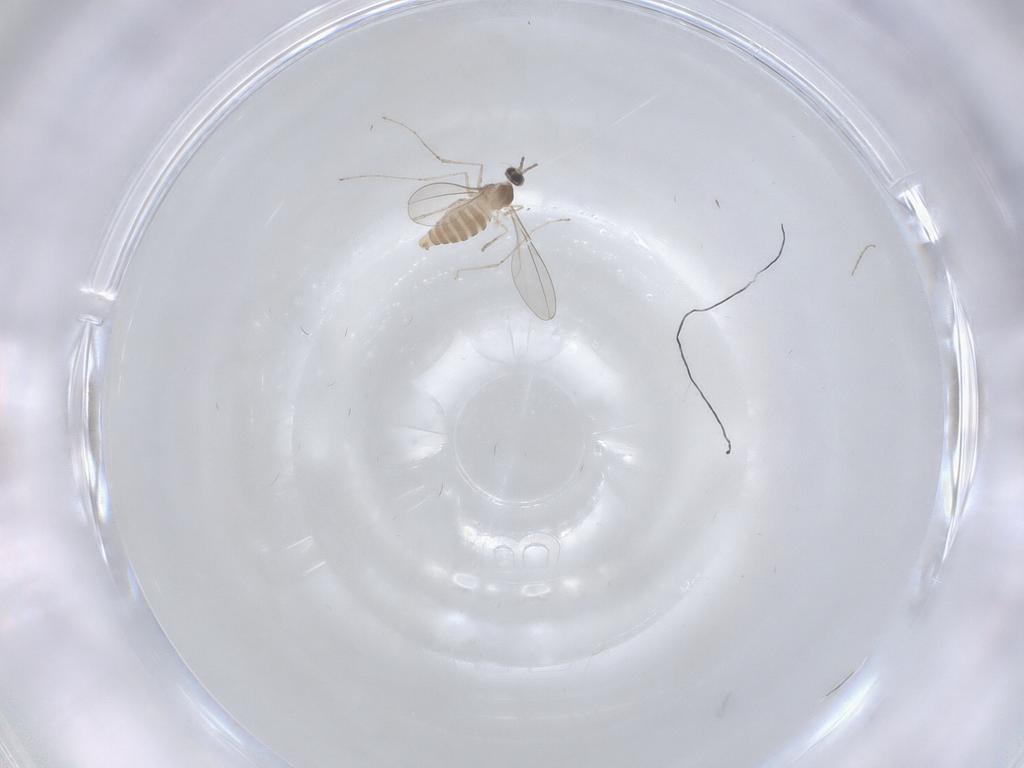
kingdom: Animalia
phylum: Arthropoda
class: Insecta
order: Diptera
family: Cecidomyiidae
